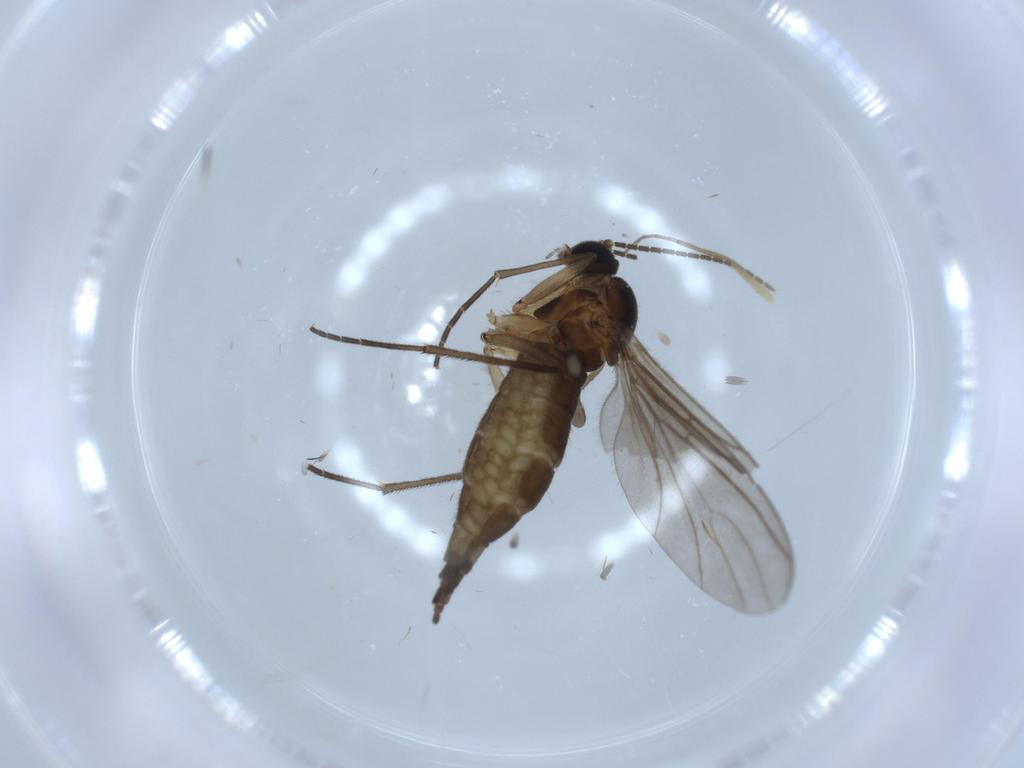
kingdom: Animalia
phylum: Arthropoda
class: Insecta
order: Diptera
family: Sciaridae
